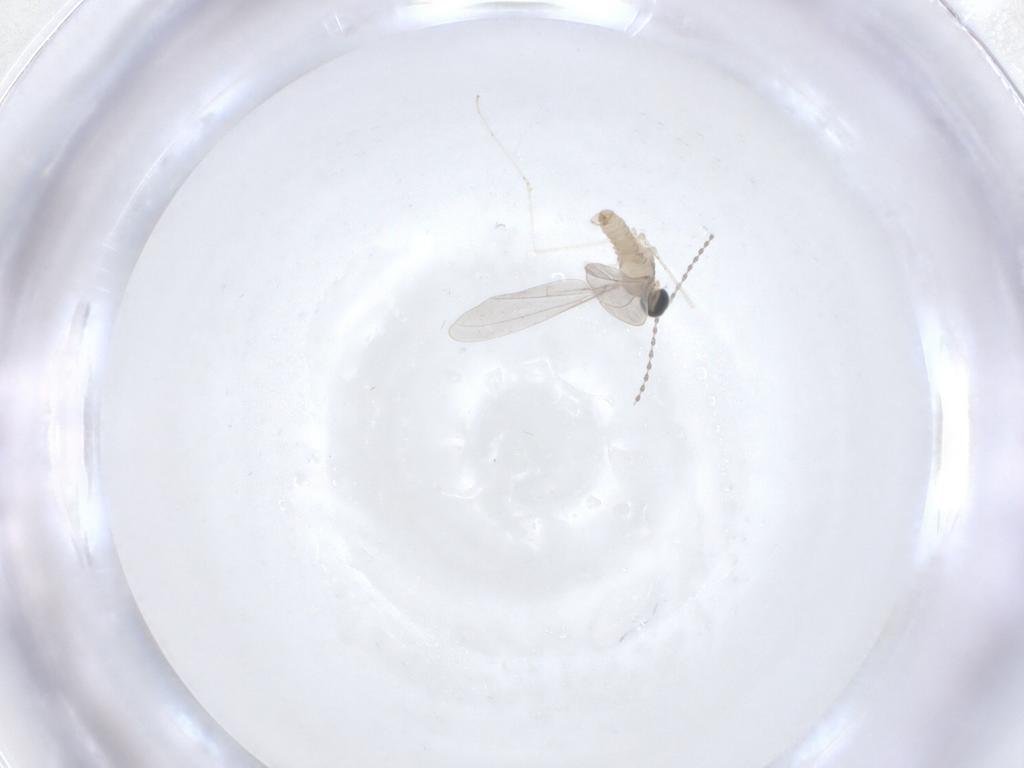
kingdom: Animalia
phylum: Arthropoda
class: Insecta
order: Diptera
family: Cecidomyiidae
